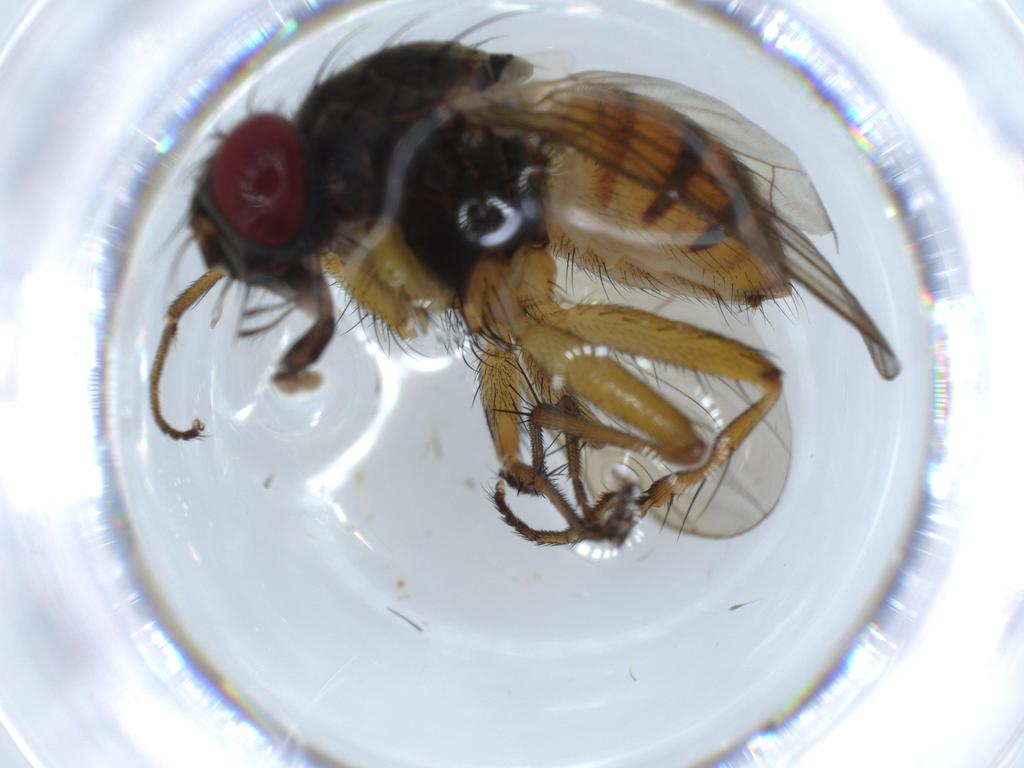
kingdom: Animalia
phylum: Arthropoda
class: Insecta
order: Diptera
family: Muscidae
